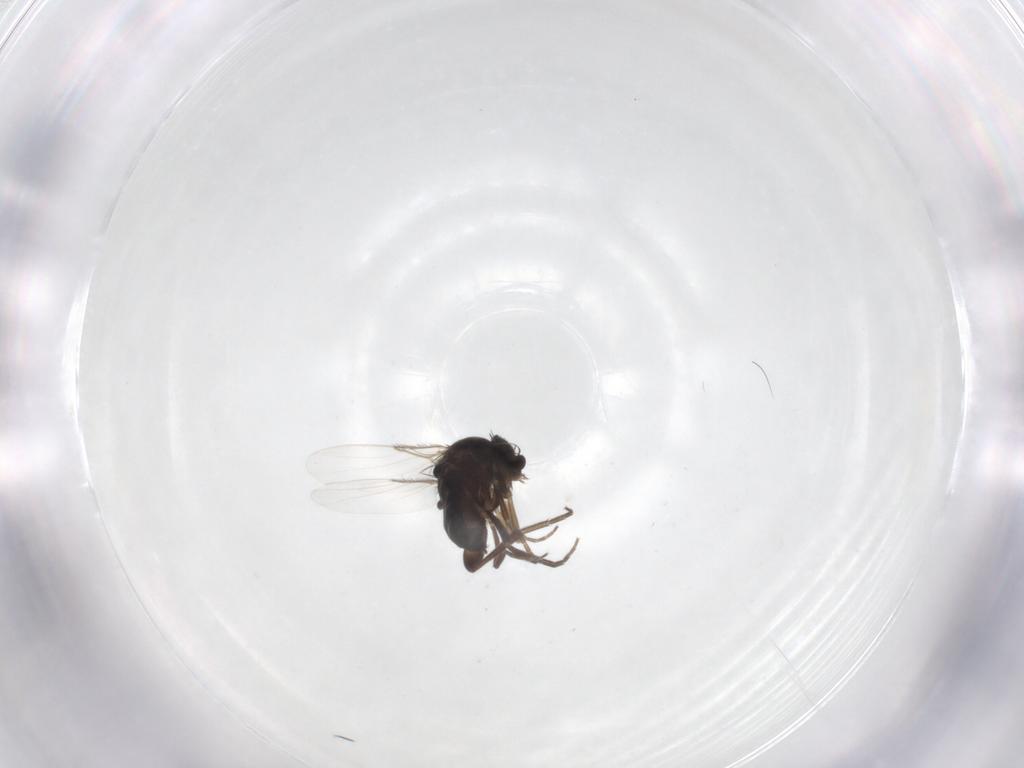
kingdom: Animalia
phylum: Arthropoda
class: Insecta
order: Diptera
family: Phoridae
